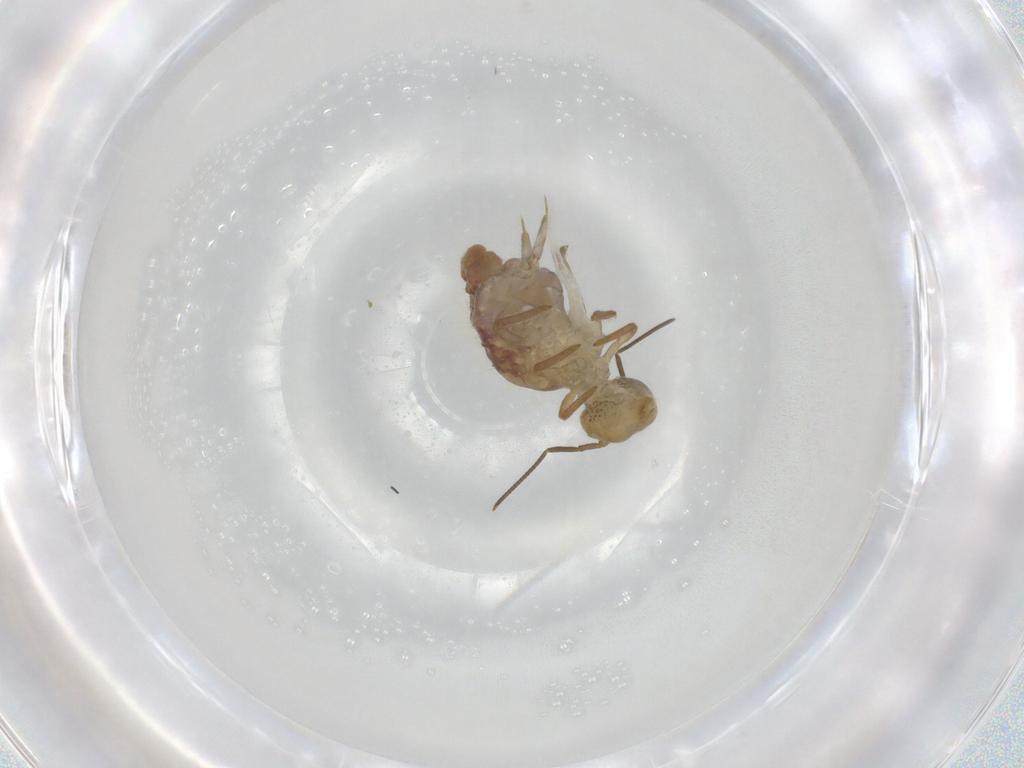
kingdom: Animalia
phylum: Arthropoda
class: Collembola
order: Symphypleona
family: Sminthuridae
